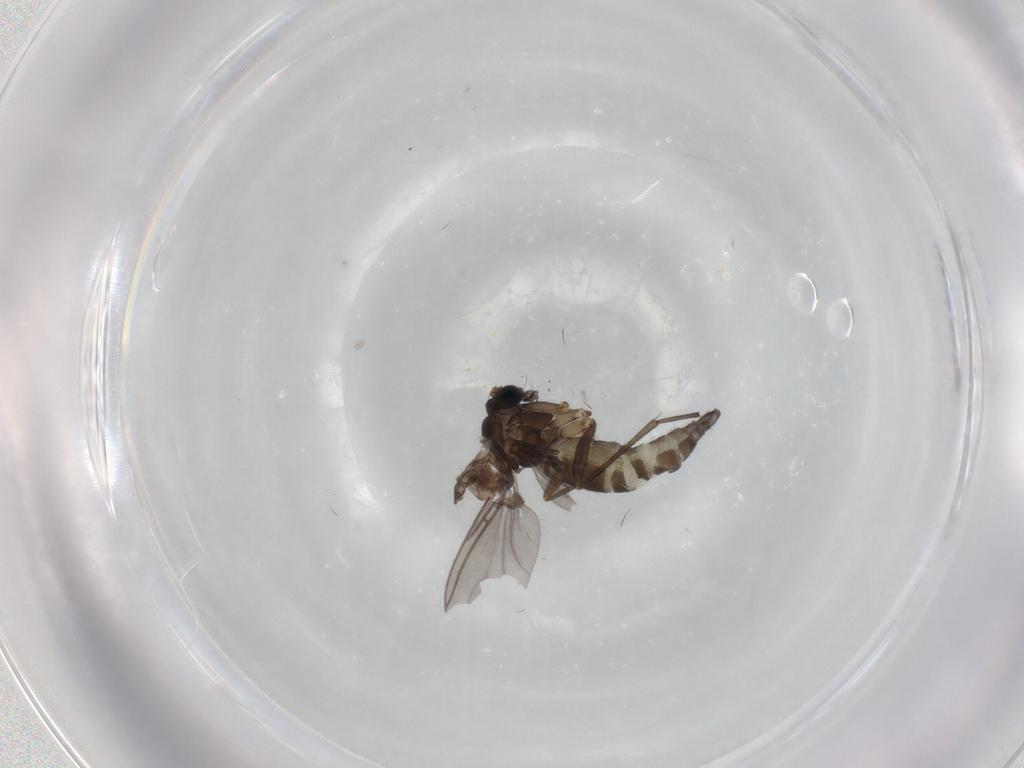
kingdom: Animalia
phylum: Arthropoda
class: Insecta
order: Diptera
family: Sciaridae
